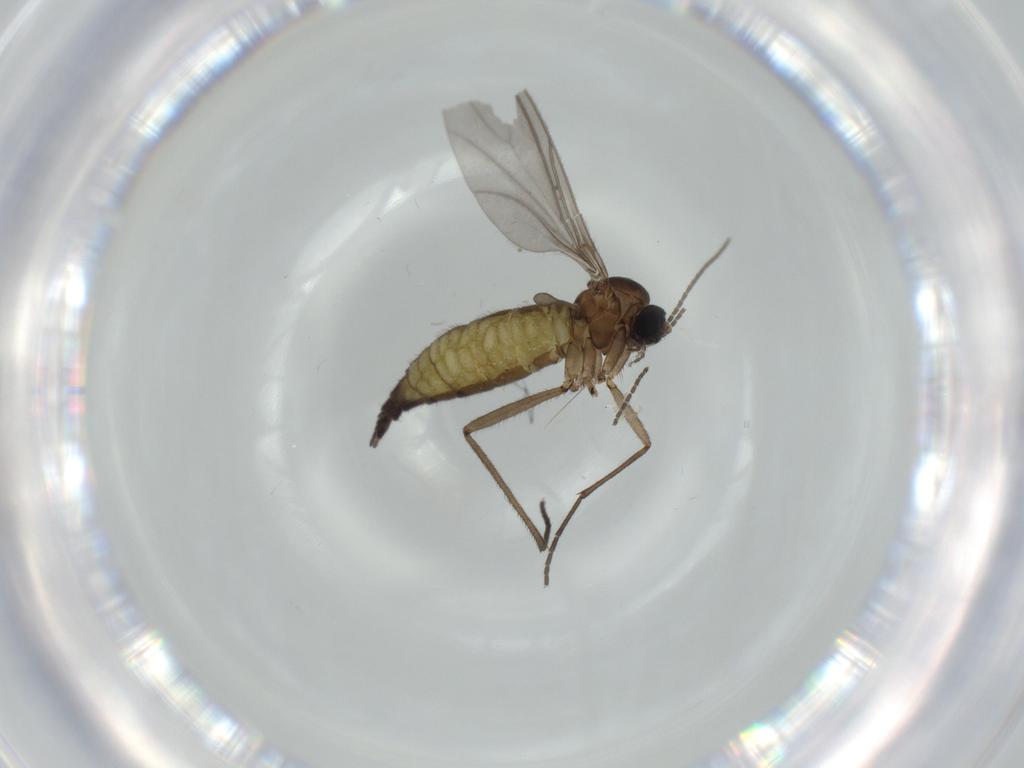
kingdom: Animalia
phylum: Arthropoda
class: Insecta
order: Diptera
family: Sciaridae
